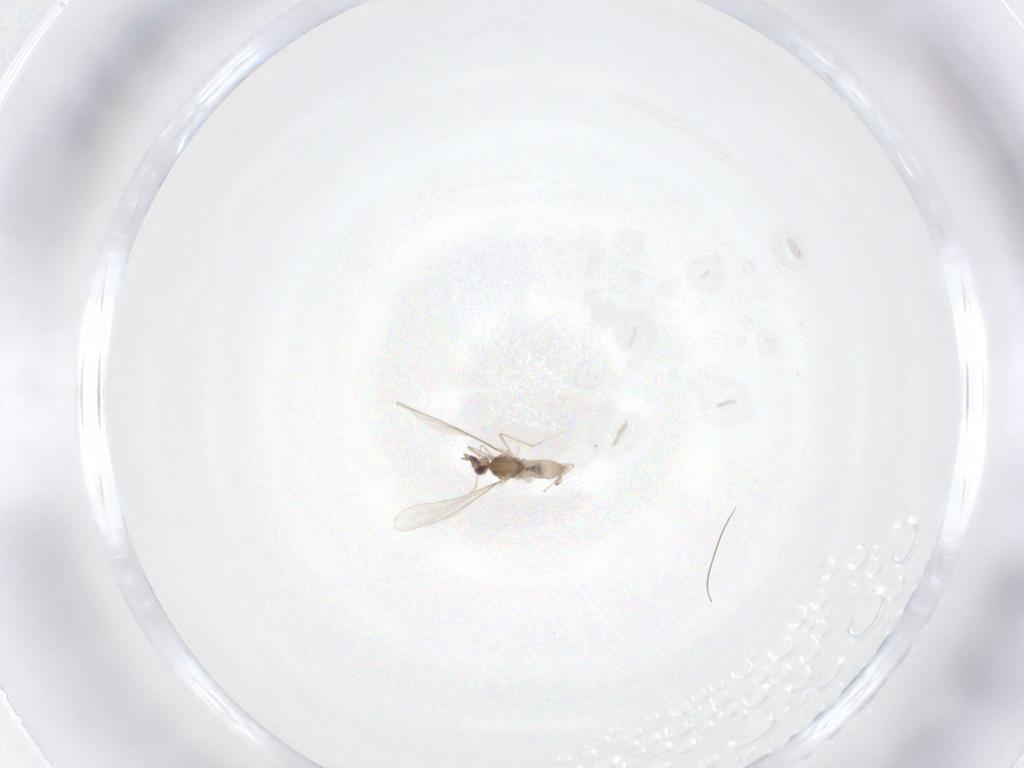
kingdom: Animalia
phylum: Arthropoda
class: Insecta
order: Diptera
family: Cecidomyiidae
